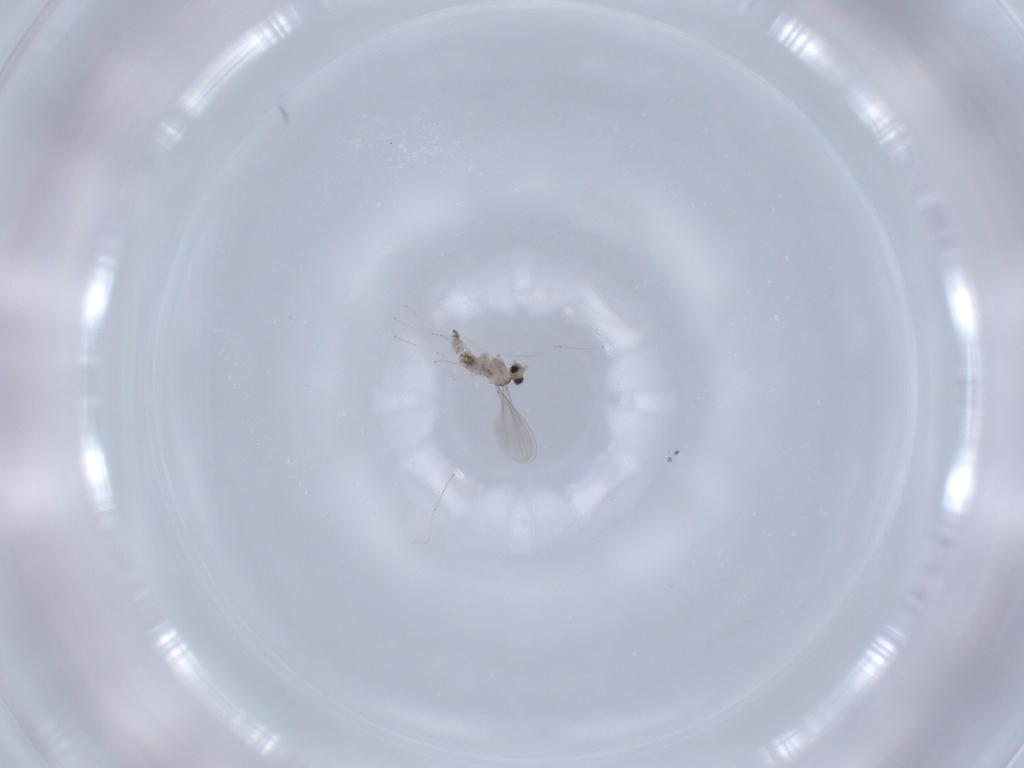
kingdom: Animalia
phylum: Arthropoda
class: Insecta
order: Diptera
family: Cecidomyiidae
